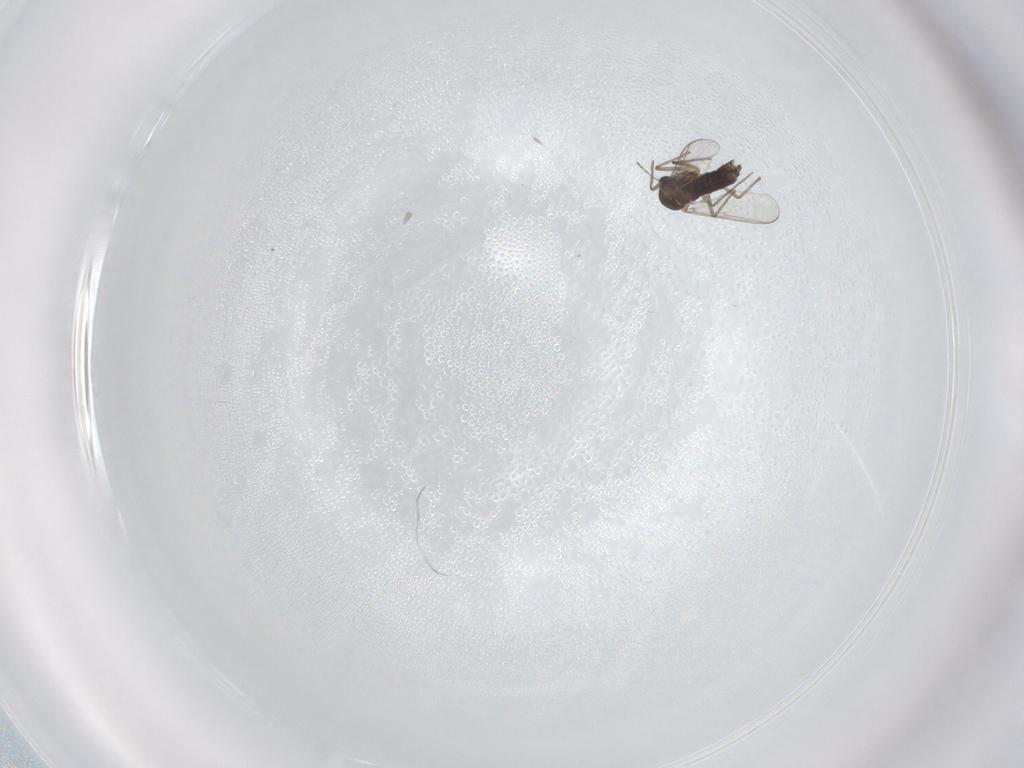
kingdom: Animalia
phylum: Arthropoda
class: Insecta
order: Diptera
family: Chironomidae
